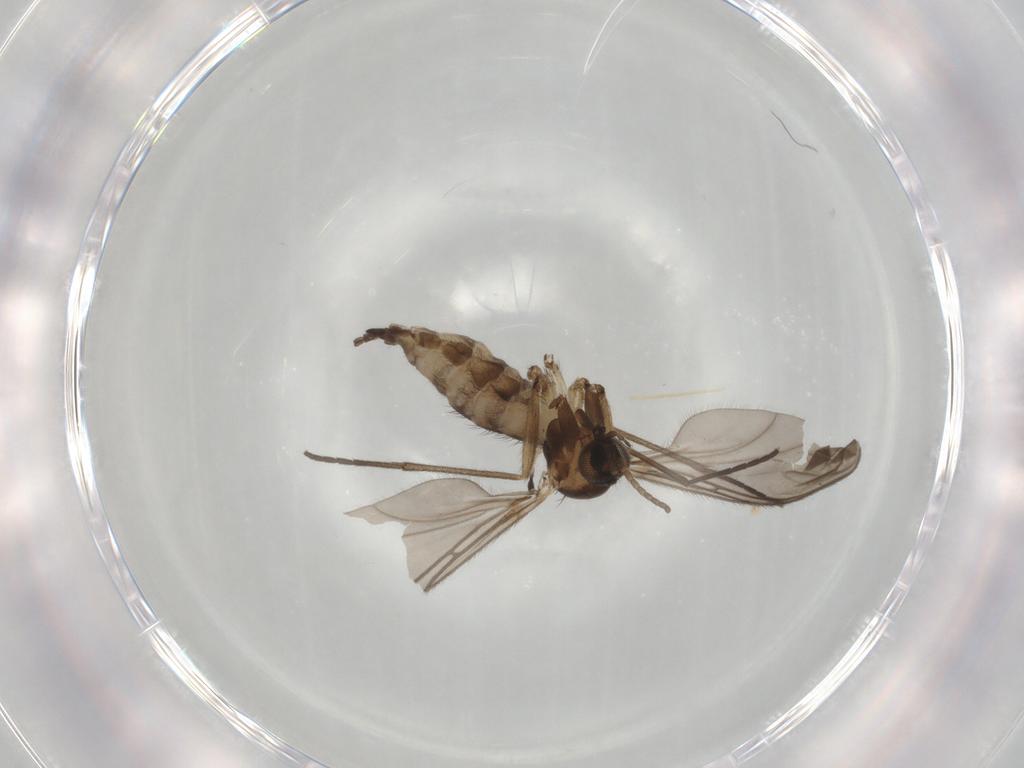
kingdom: Animalia
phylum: Arthropoda
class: Insecta
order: Diptera
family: Sciaridae
